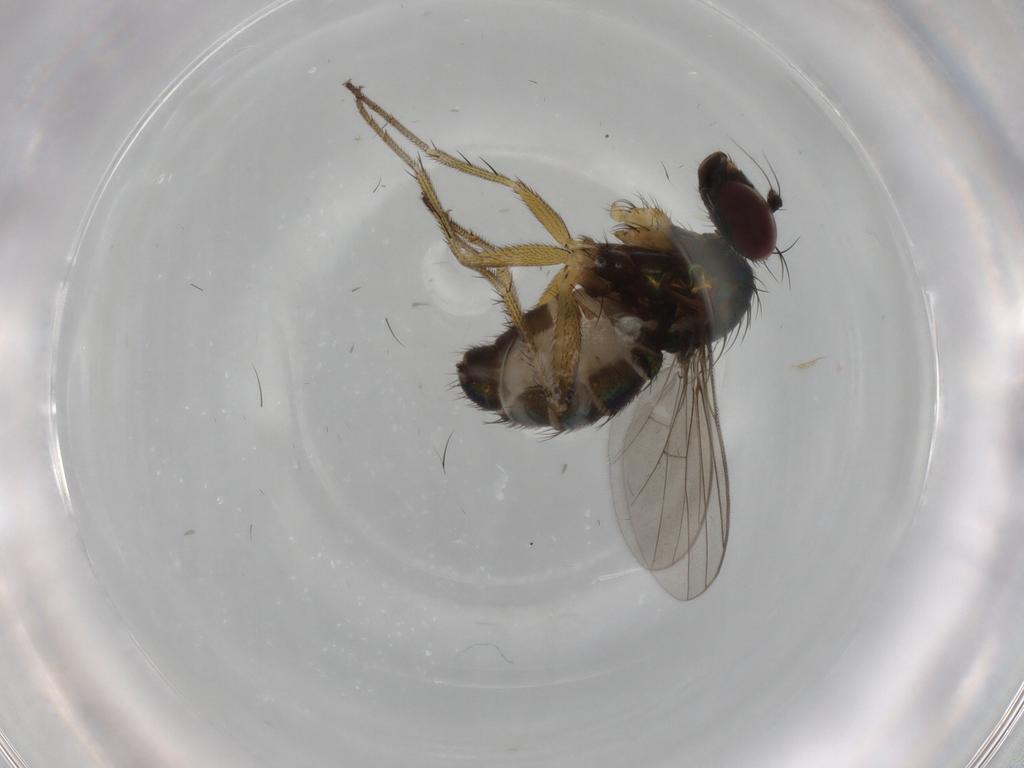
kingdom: Animalia
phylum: Arthropoda
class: Insecta
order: Diptera
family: Dolichopodidae
